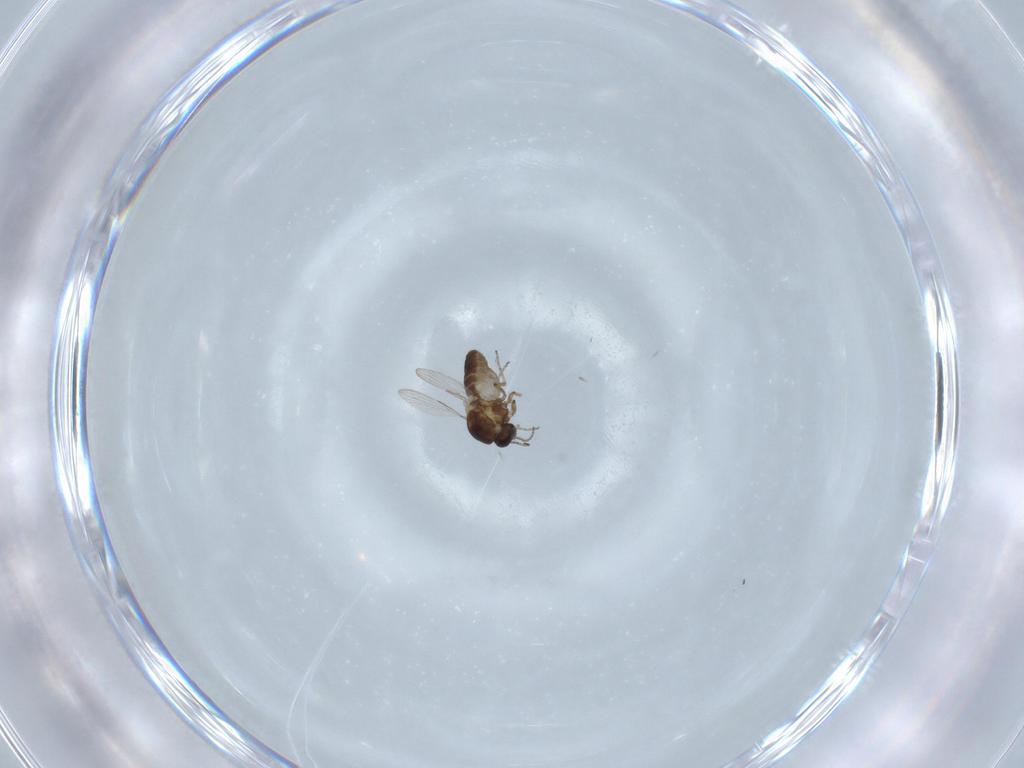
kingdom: Animalia
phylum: Arthropoda
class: Insecta
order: Diptera
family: Ceratopogonidae
